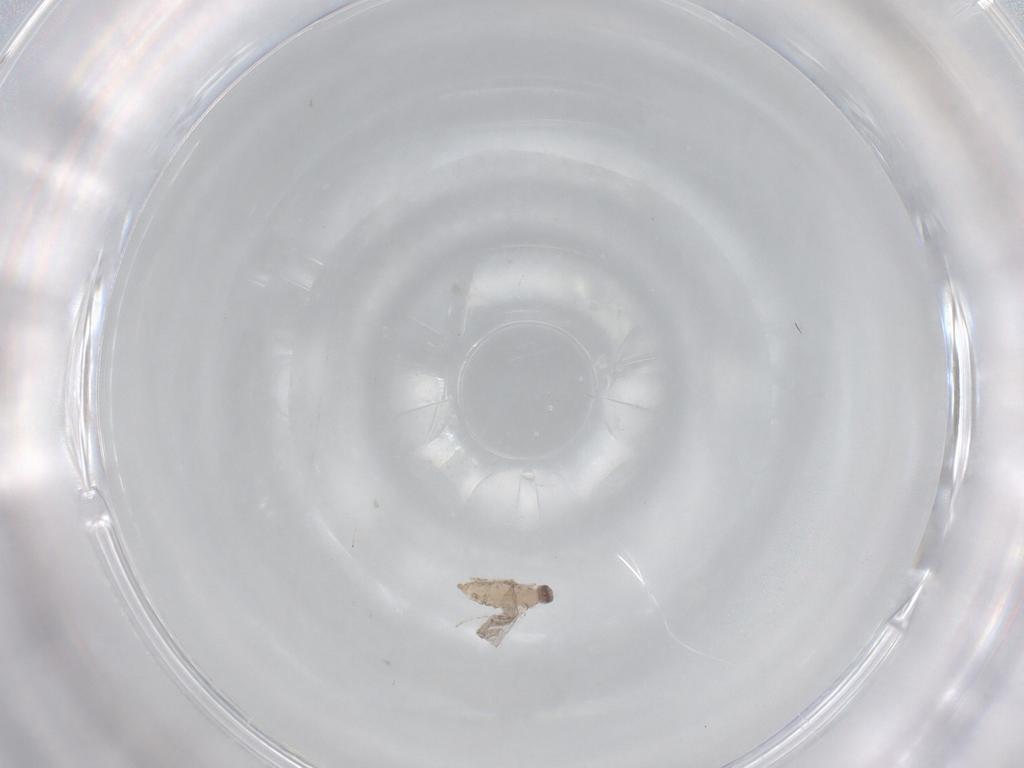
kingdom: Animalia
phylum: Arthropoda
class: Insecta
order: Diptera
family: Cecidomyiidae
